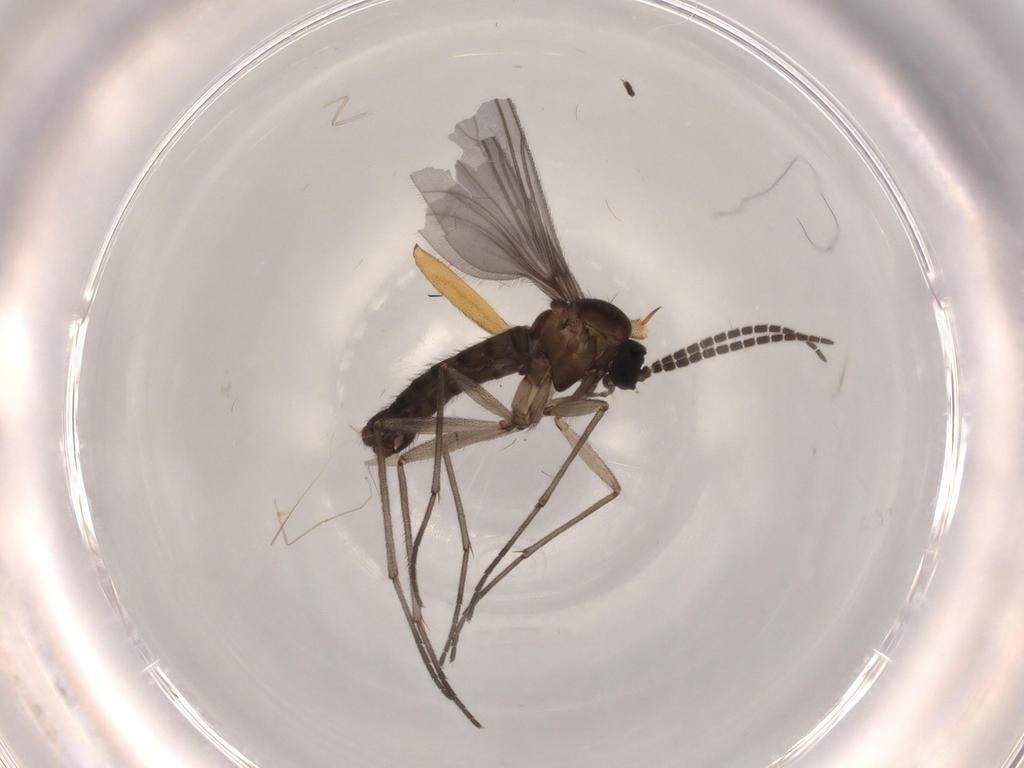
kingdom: Animalia
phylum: Arthropoda
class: Insecta
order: Diptera
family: Sciaridae
